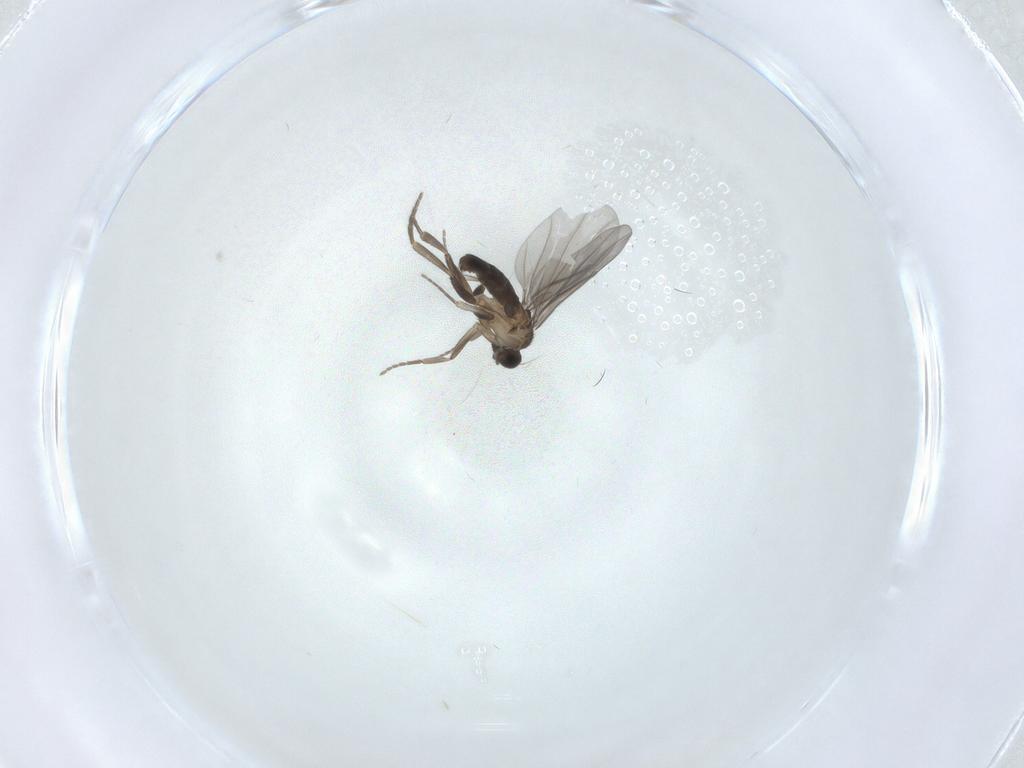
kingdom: Animalia
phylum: Arthropoda
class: Insecta
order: Diptera
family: Phoridae
